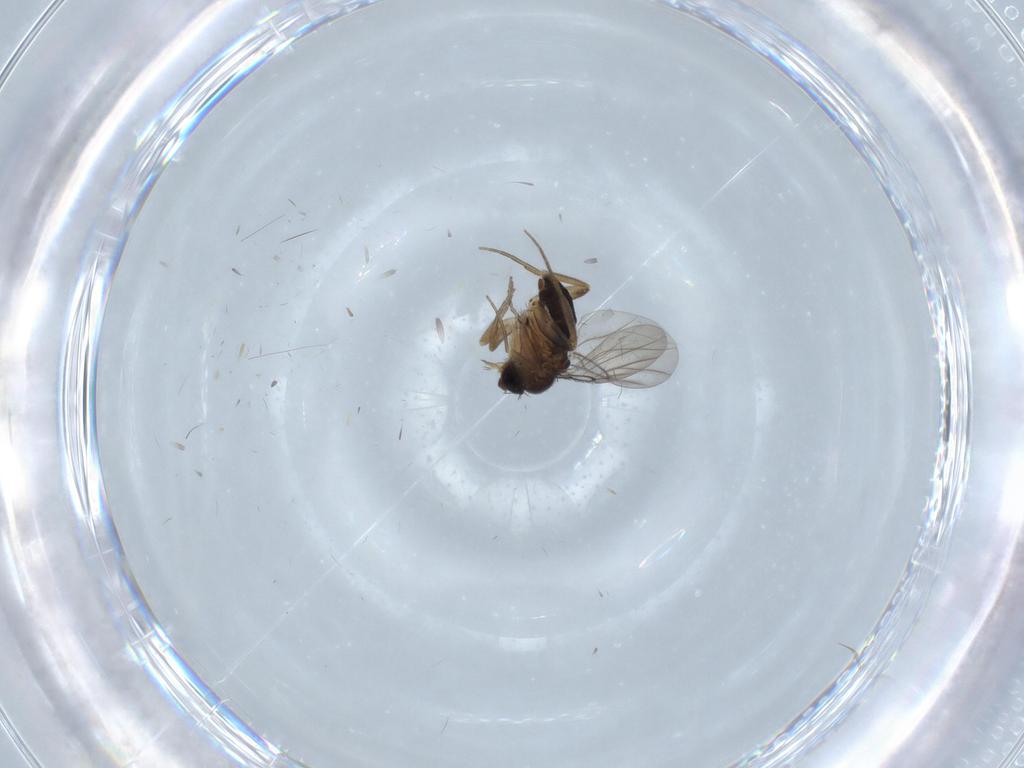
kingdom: Animalia
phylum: Arthropoda
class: Insecta
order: Diptera
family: Phoridae
